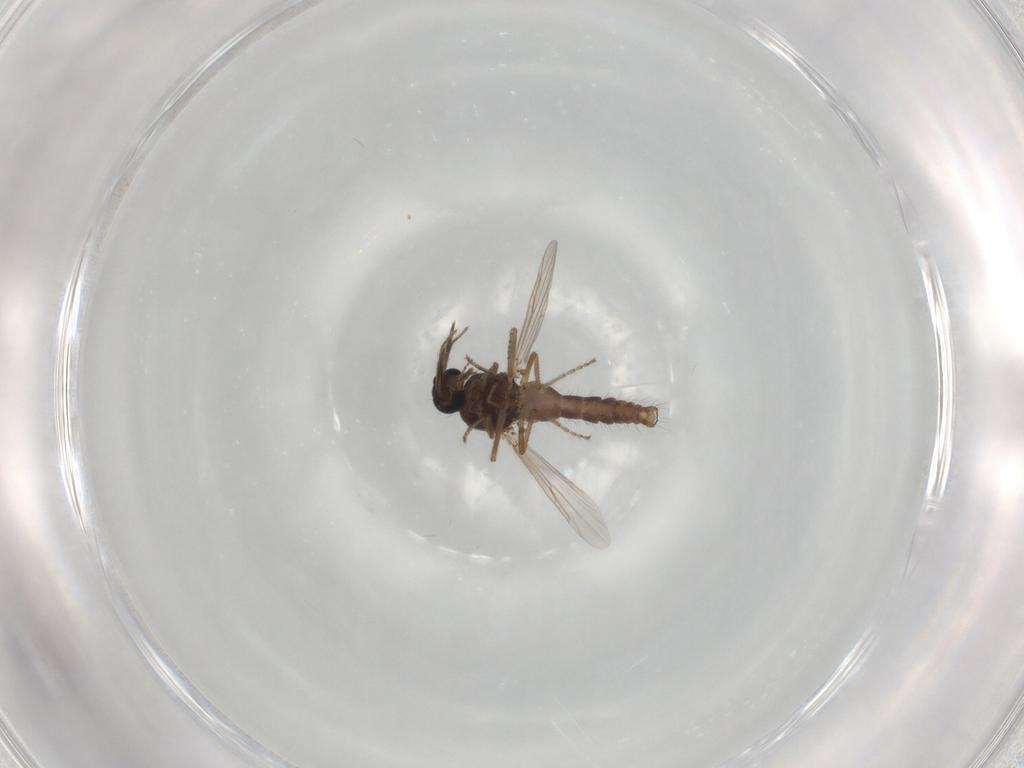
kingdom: Animalia
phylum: Arthropoda
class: Insecta
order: Diptera
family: Ceratopogonidae
